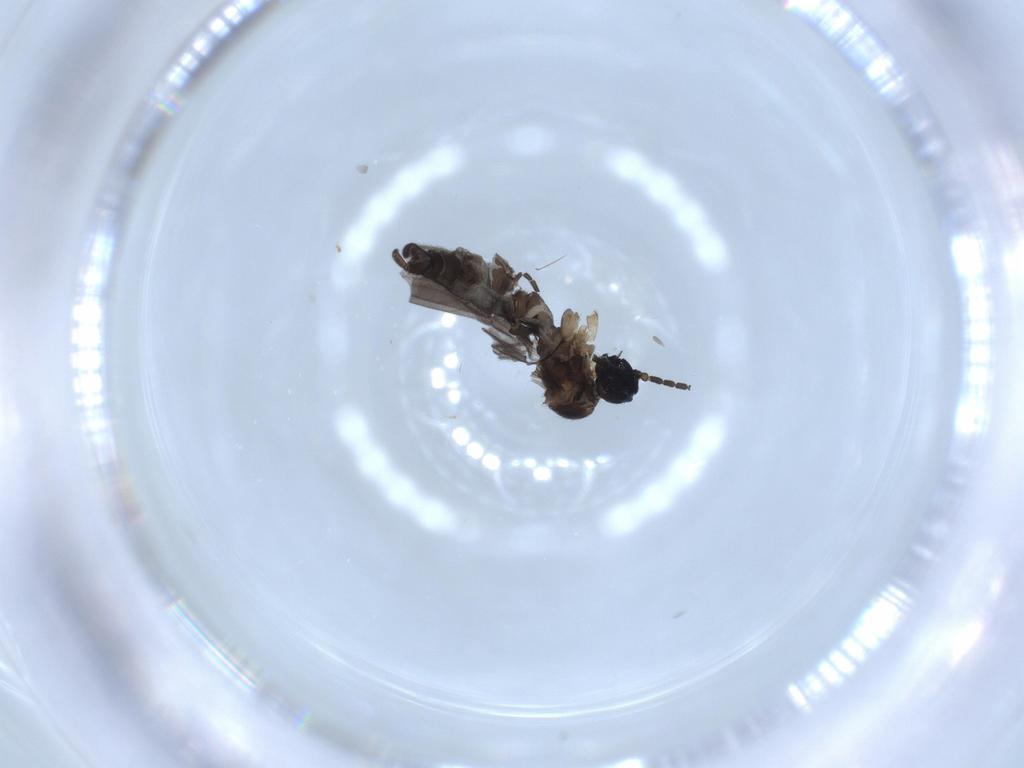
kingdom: Animalia
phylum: Arthropoda
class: Insecta
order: Diptera
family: Sciaridae
